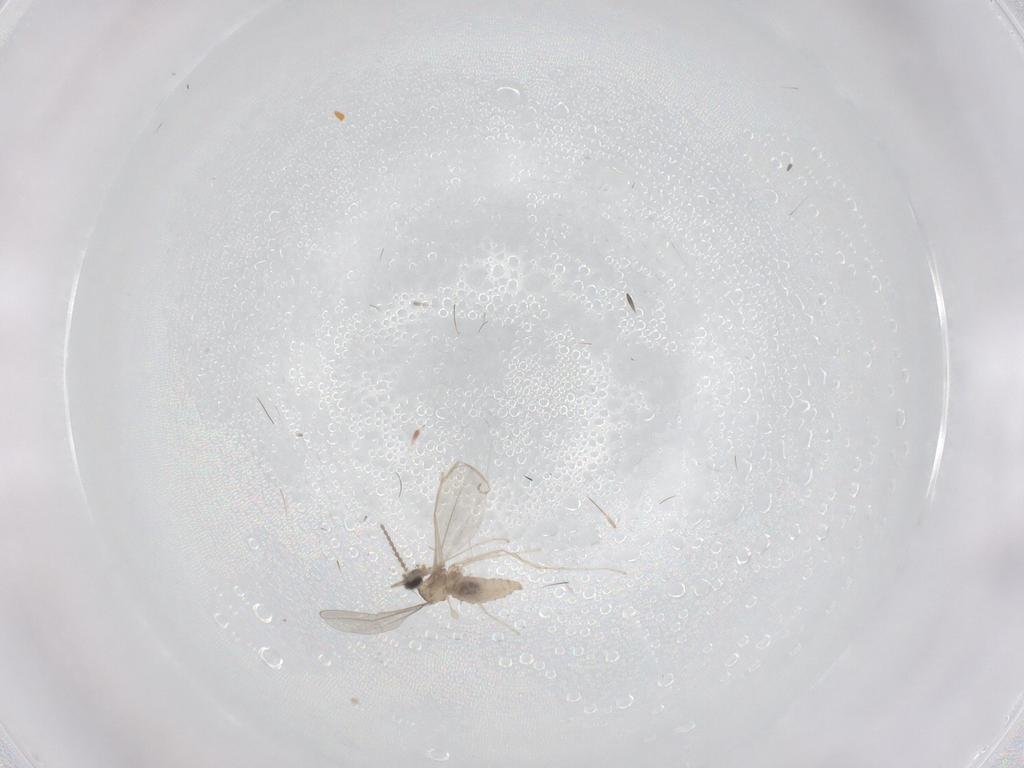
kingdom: Animalia
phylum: Arthropoda
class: Insecta
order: Diptera
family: Cecidomyiidae
